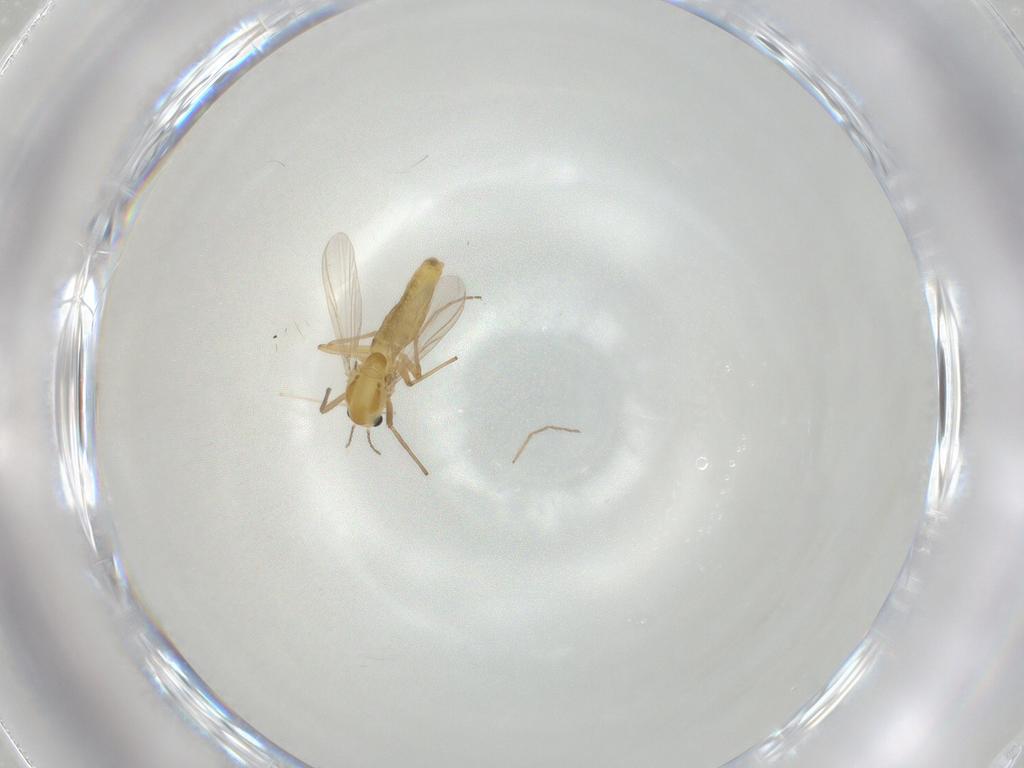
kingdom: Animalia
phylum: Arthropoda
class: Insecta
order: Diptera
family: Chironomidae
